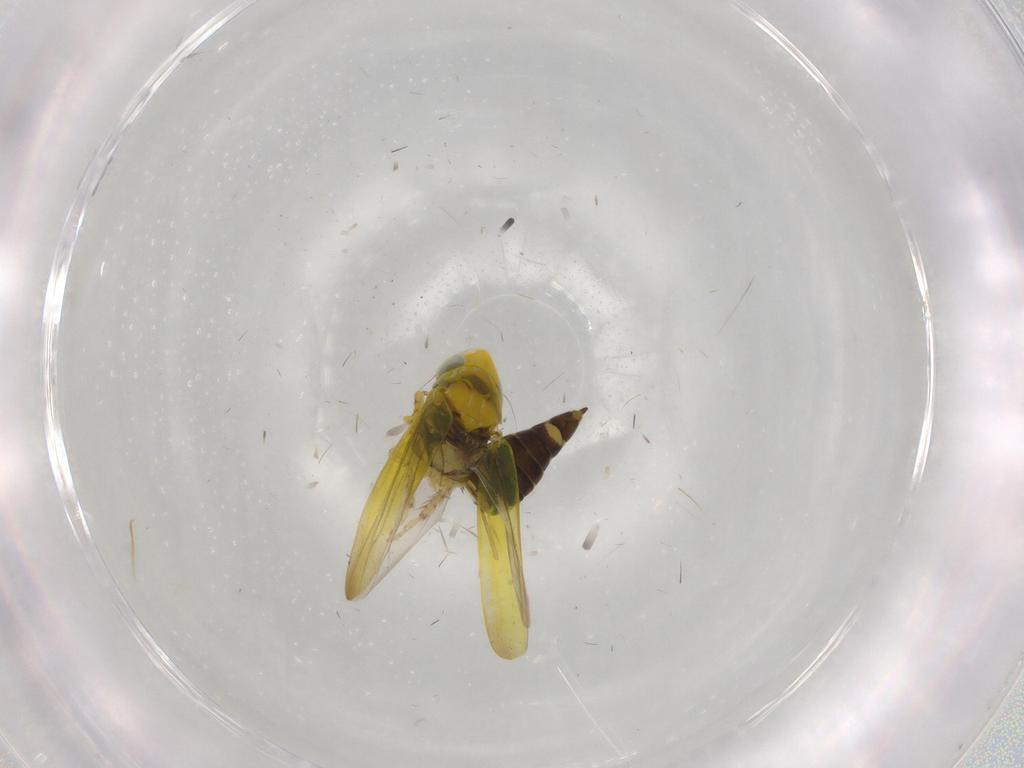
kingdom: Animalia
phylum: Arthropoda
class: Insecta
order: Hemiptera
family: Cicadellidae
